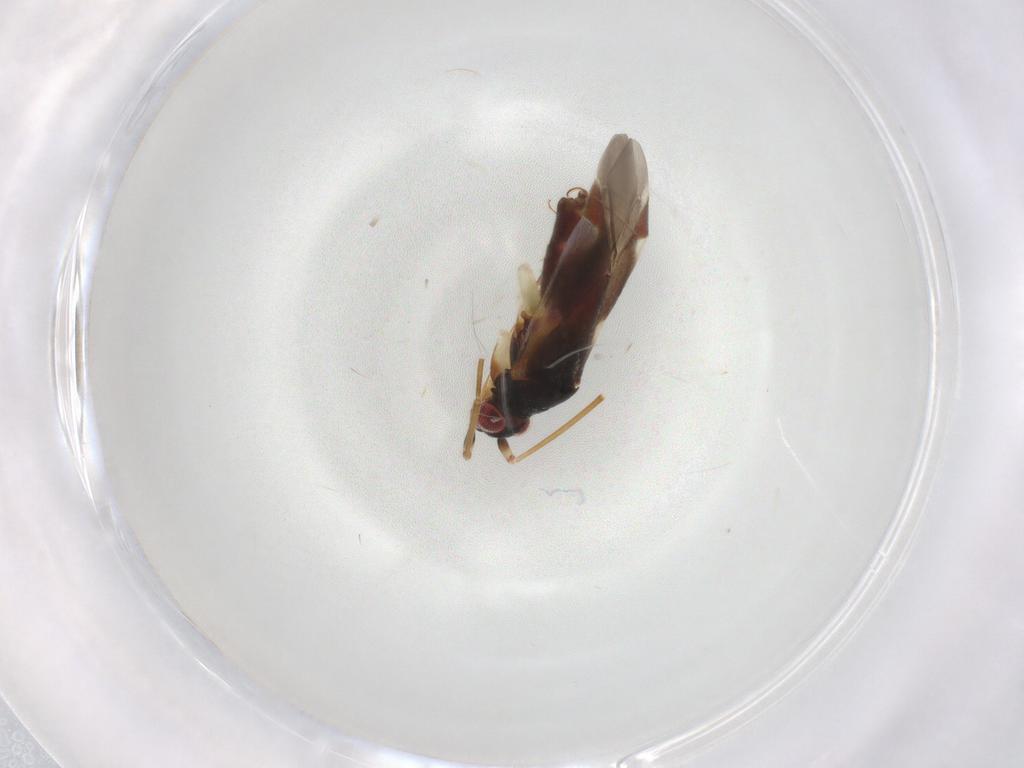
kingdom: Animalia
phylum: Arthropoda
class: Insecta
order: Hemiptera
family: Miridae
